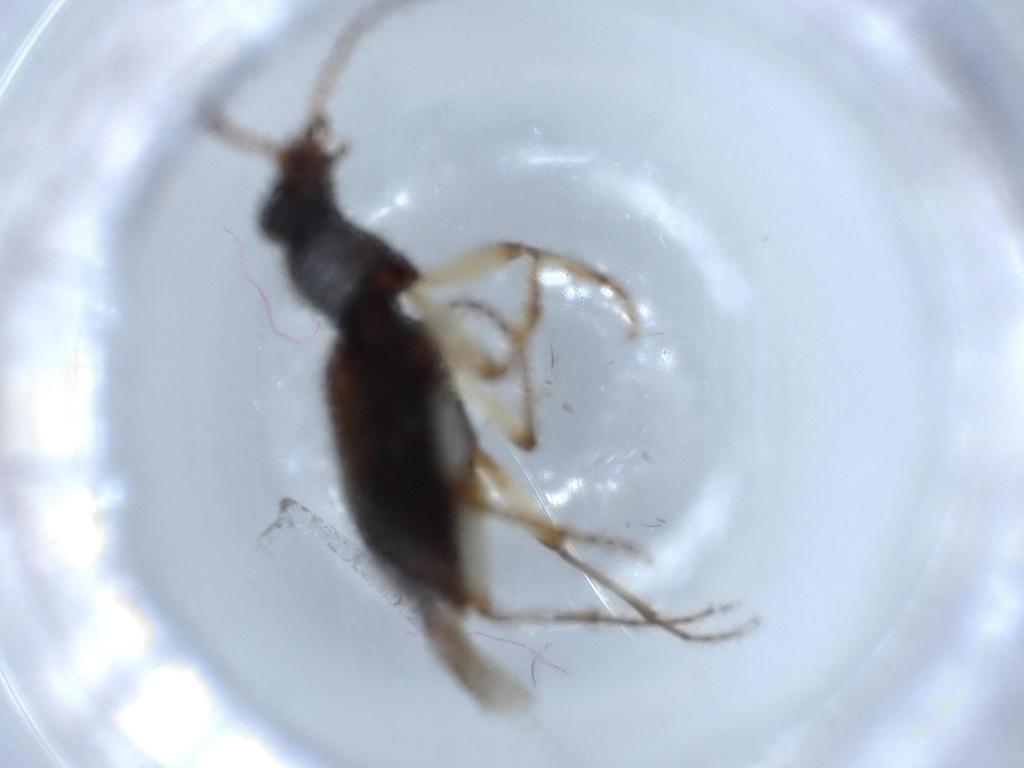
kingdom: Animalia
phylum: Arthropoda
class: Insecta
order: Coleoptera
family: Carabidae
